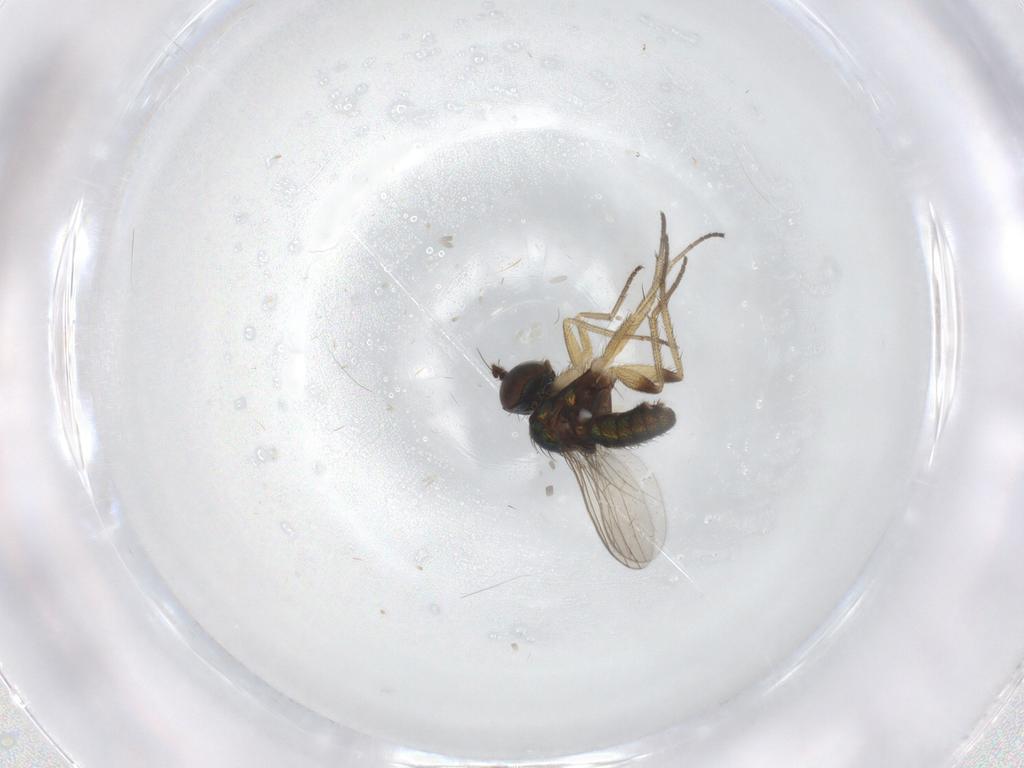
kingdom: Animalia
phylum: Arthropoda
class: Insecta
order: Diptera
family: Dolichopodidae
